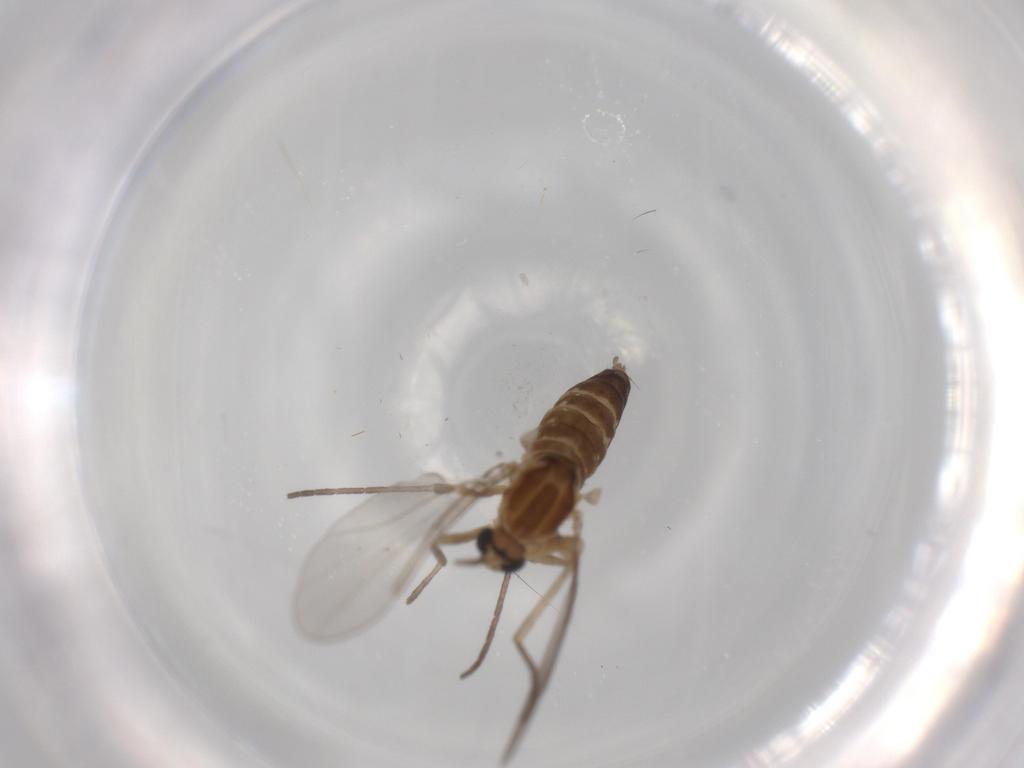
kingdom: Animalia
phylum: Arthropoda
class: Insecta
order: Diptera
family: Cecidomyiidae
